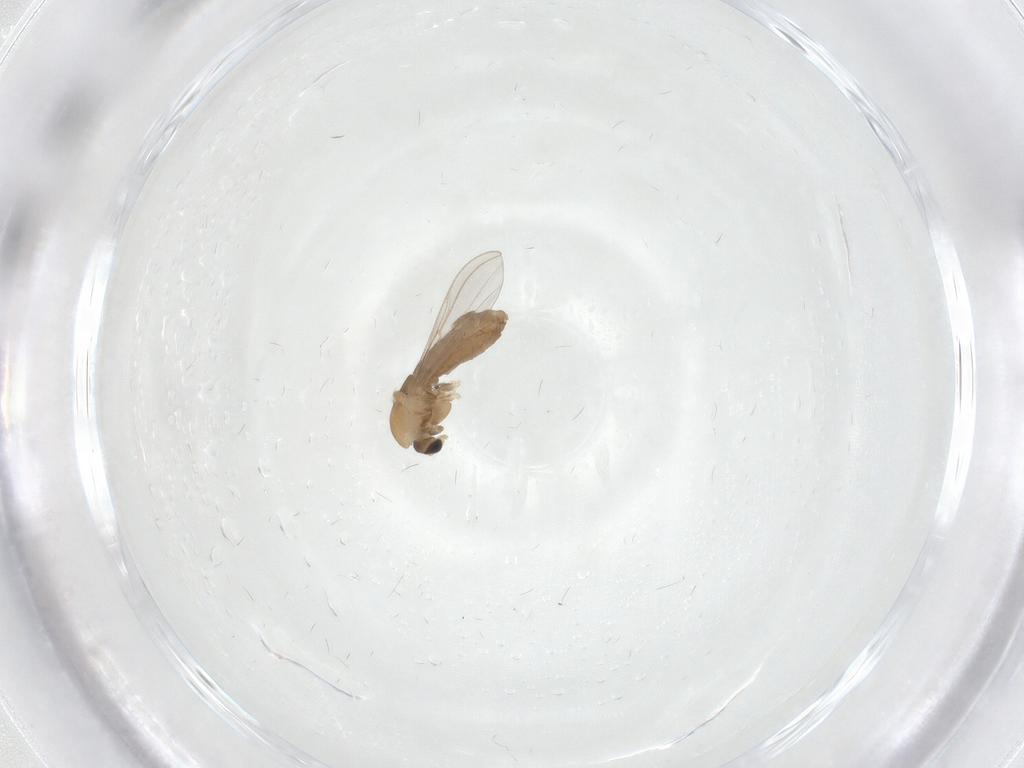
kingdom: Animalia
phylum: Arthropoda
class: Insecta
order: Diptera
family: Chironomidae
